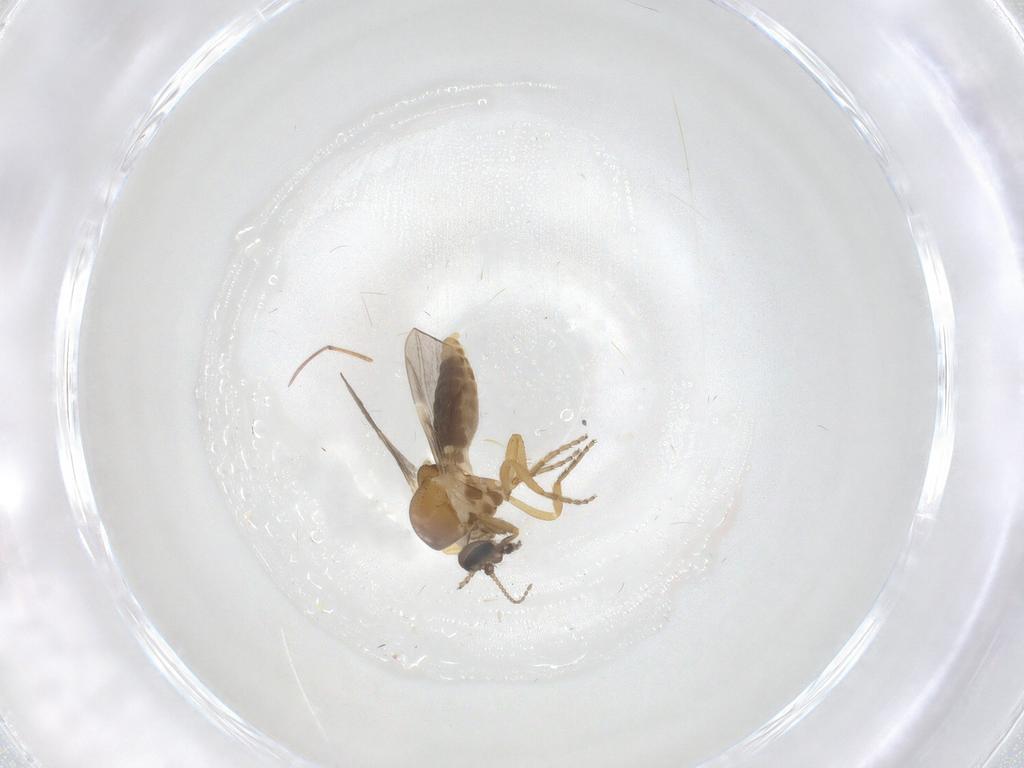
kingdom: Animalia
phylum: Arthropoda
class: Insecta
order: Diptera
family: Ceratopogonidae
